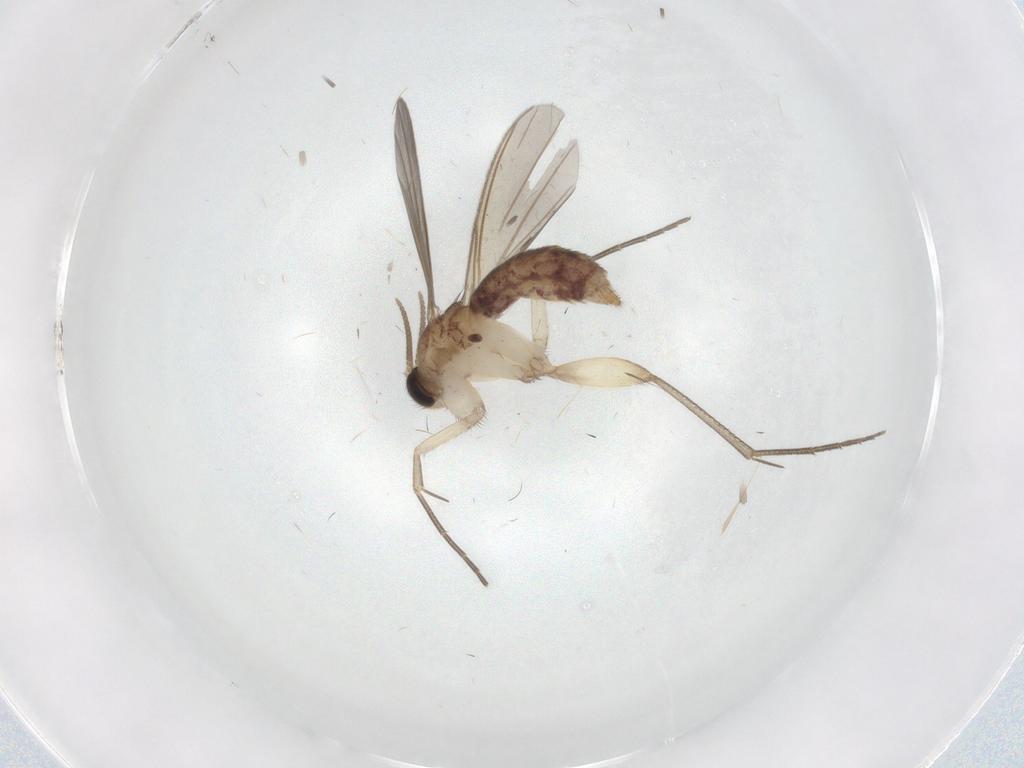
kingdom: Animalia
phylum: Arthropoda
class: Insecta
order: Diptera
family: Mycetophilidae
